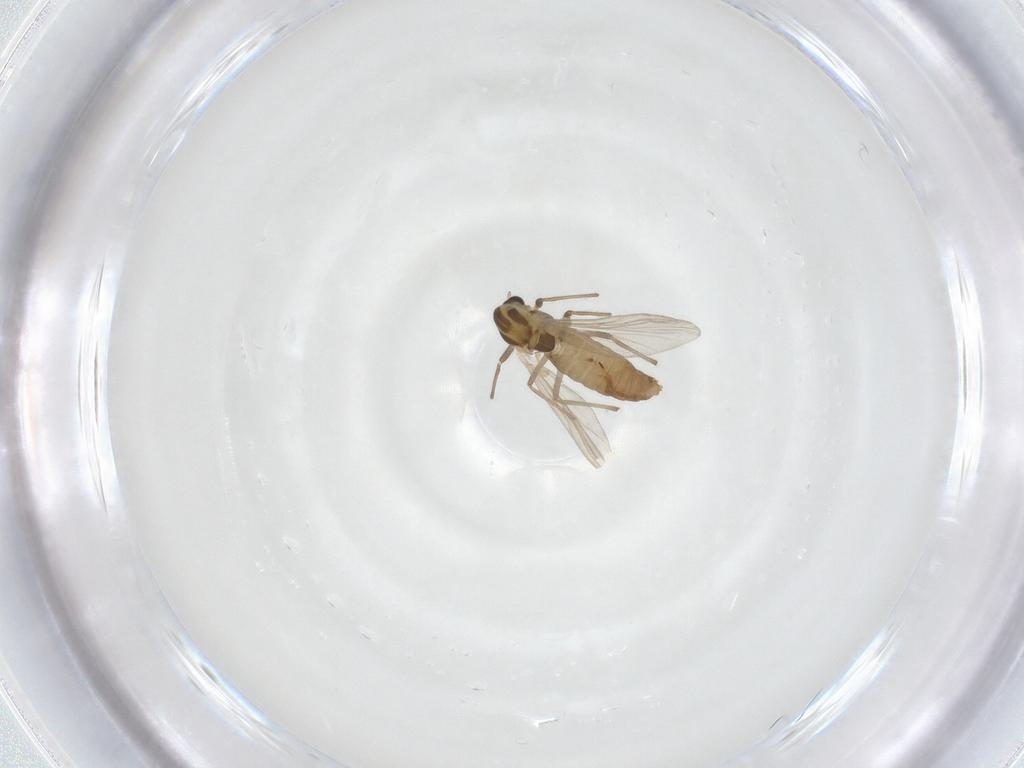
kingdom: Animalia
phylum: Arthropoda
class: Insecta
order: Diptera
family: Chironomidae
